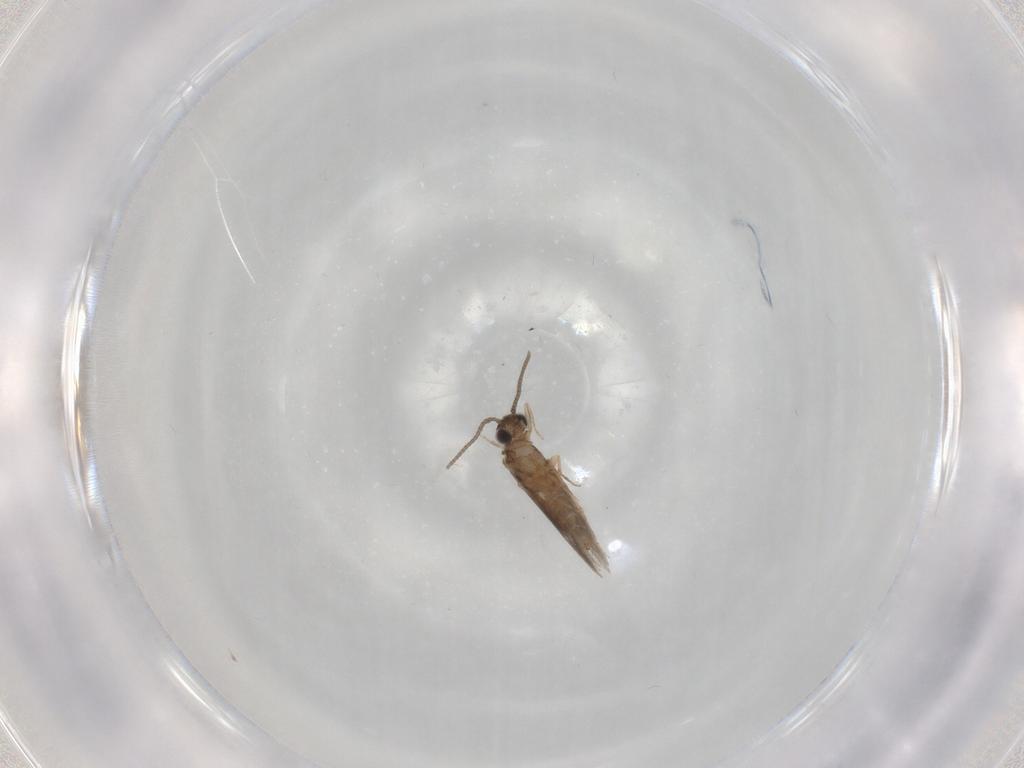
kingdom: Animalia
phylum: Arthropoda
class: Insecta
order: Trichoptera
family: Hydroptilidae
